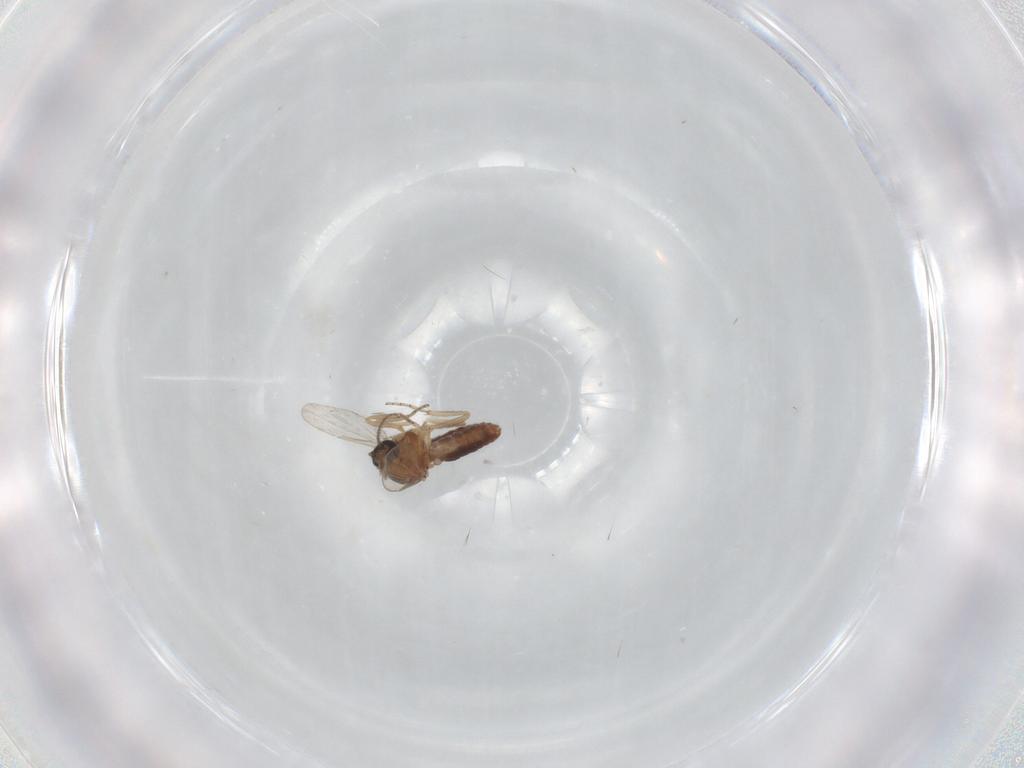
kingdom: Animalia
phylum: Arthropoda
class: Insecta
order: Diptera
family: Ceratopogonidae
